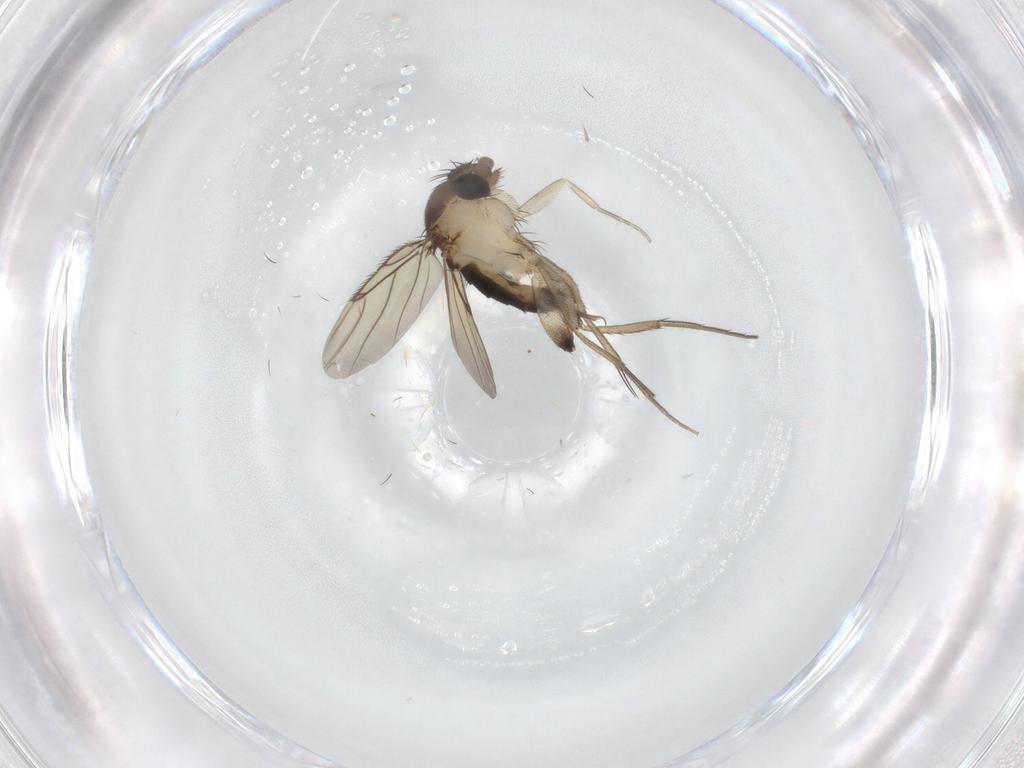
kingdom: Animalia
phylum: Arthropoda
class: Insecta
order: Diptera
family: Phoridae
